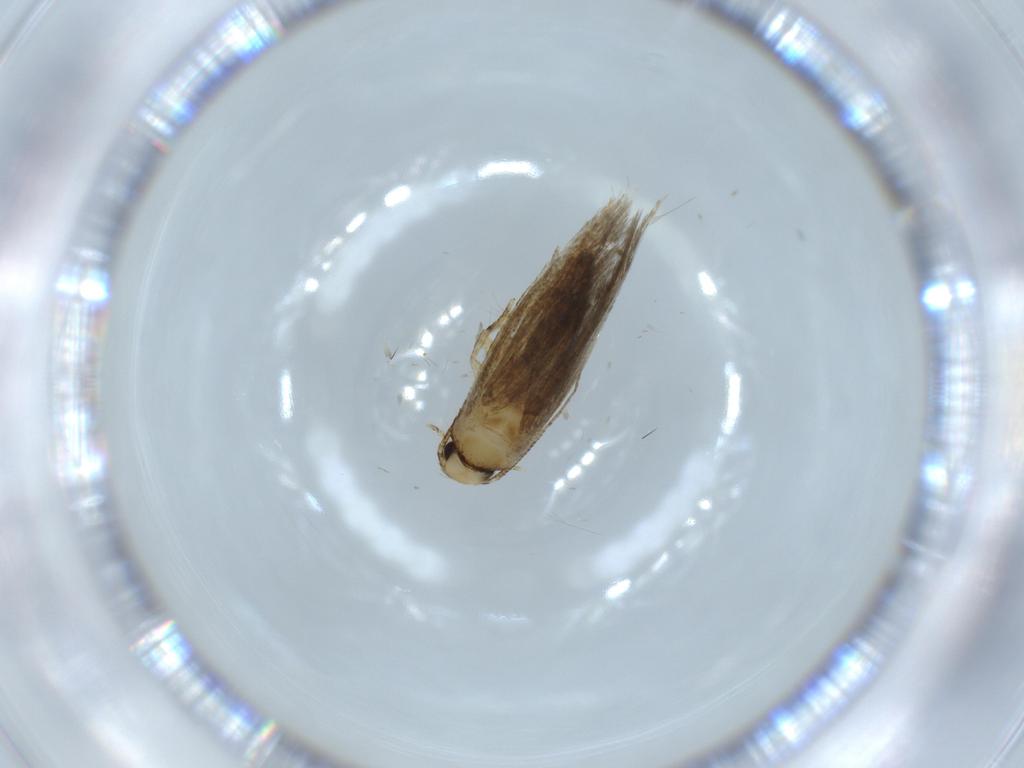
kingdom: Animalia
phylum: Arthropoda
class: Insecta
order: Lepidoptera
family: Tineidae
